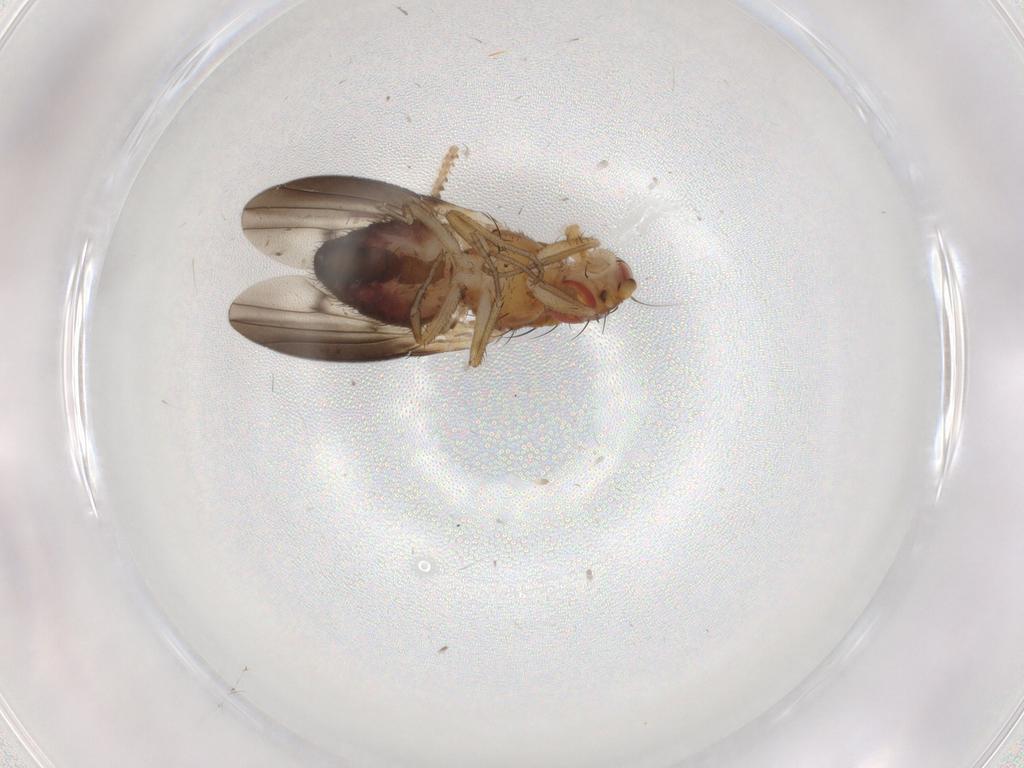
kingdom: Animalia
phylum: Arthropoda
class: Insecta
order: Diptera
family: Heleomyzidae
